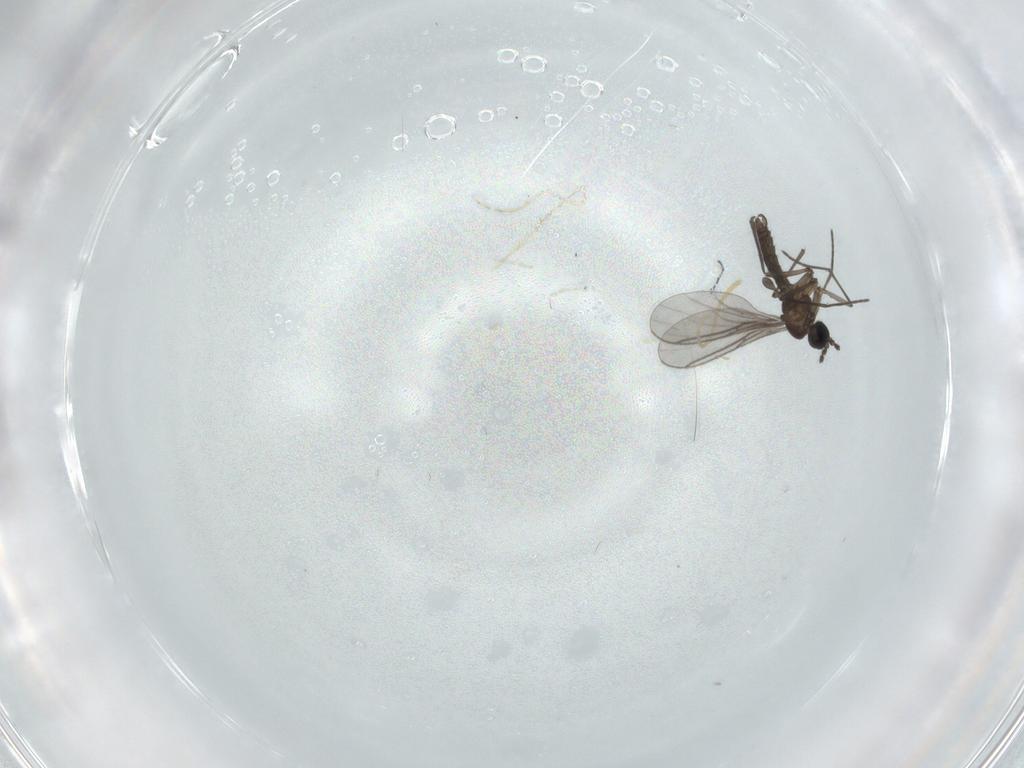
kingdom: Animalia
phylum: Arthropoda
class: Insecta
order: Diptera
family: Cecidomyiidae
